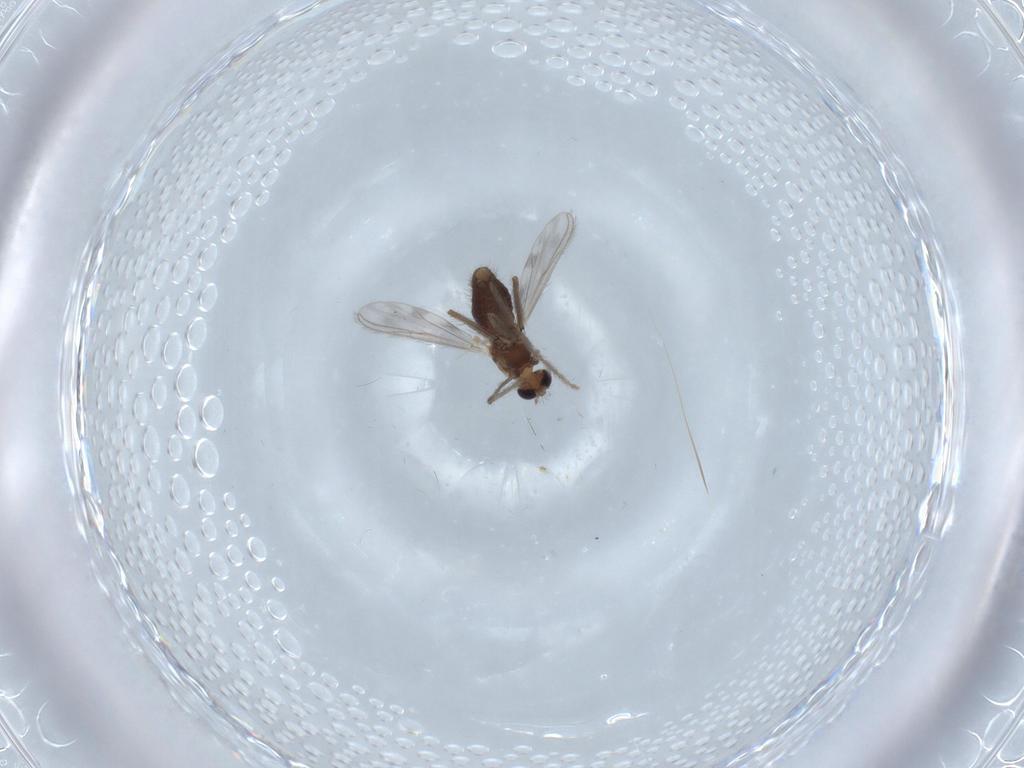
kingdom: Animalia
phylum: Arthropoda
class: Insecta
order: Diptera
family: Chironomidae
